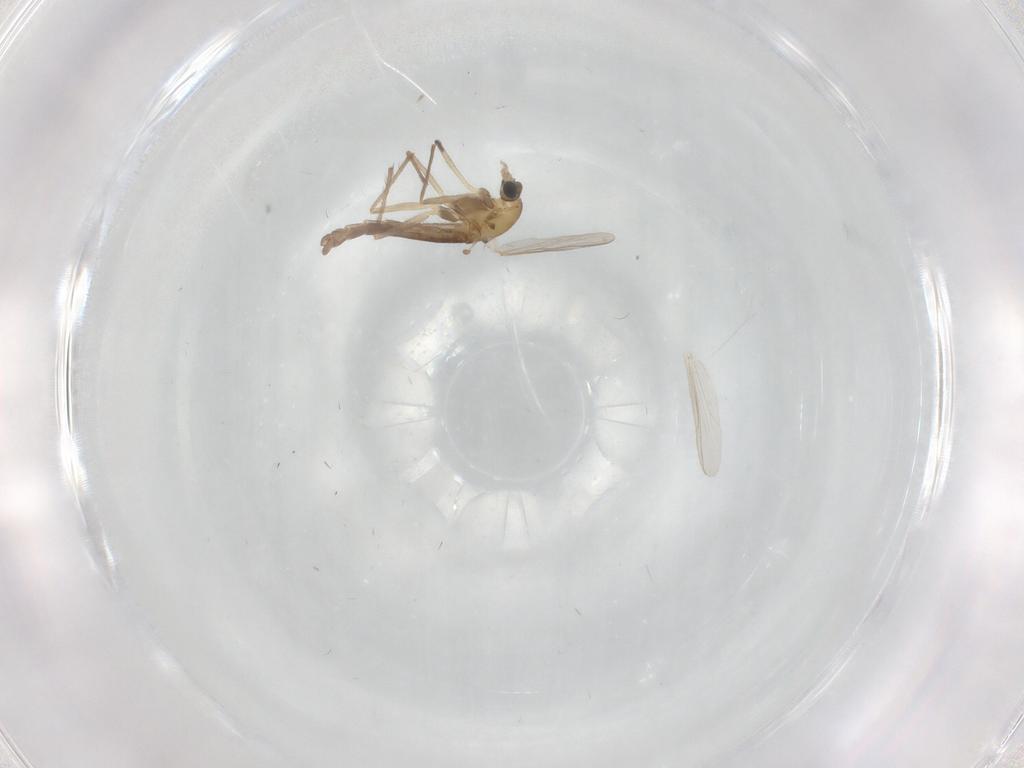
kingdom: Animalia
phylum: Arthropoda
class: Insecta
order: Diptera
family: Chironomidae
